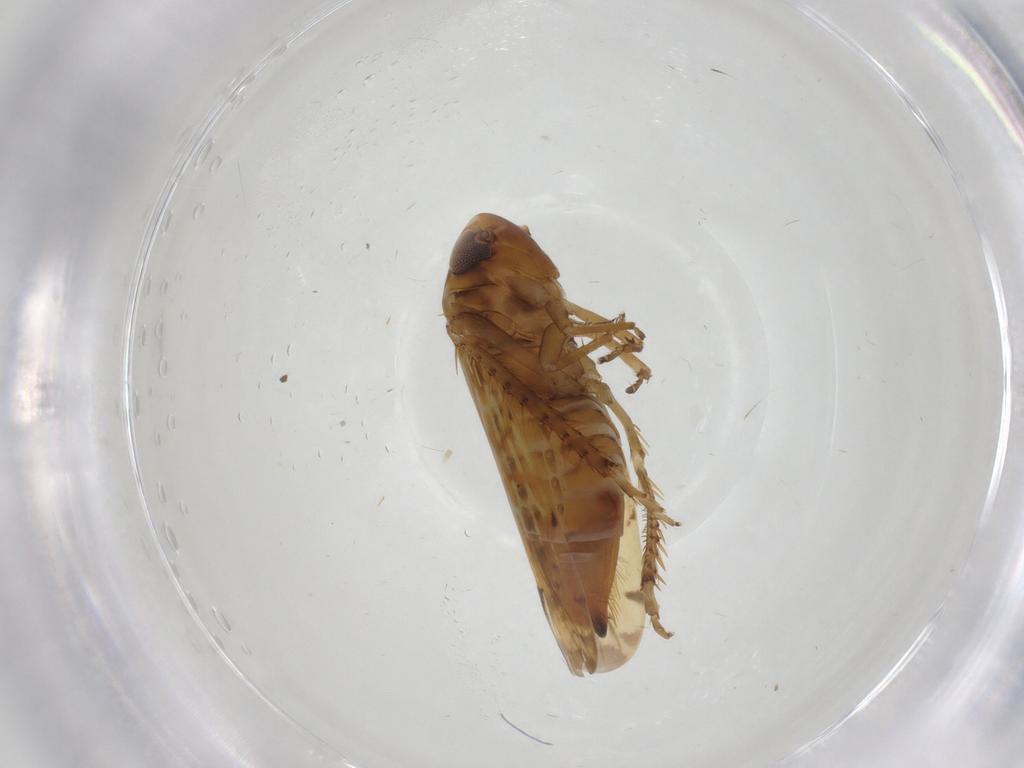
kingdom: Animalia
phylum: Arthropoda
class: Insecta
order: Hemiptera
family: Cicadellidae
